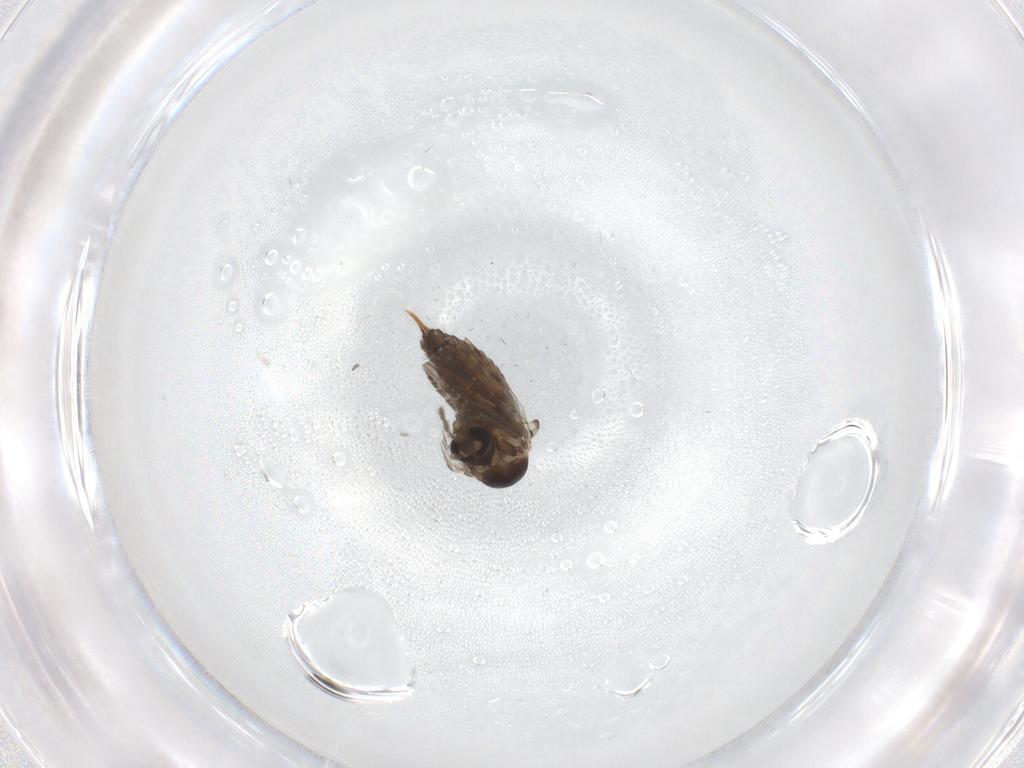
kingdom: Animalia
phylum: Arthropoda
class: Insecta
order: Diptera
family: Psychodidae
